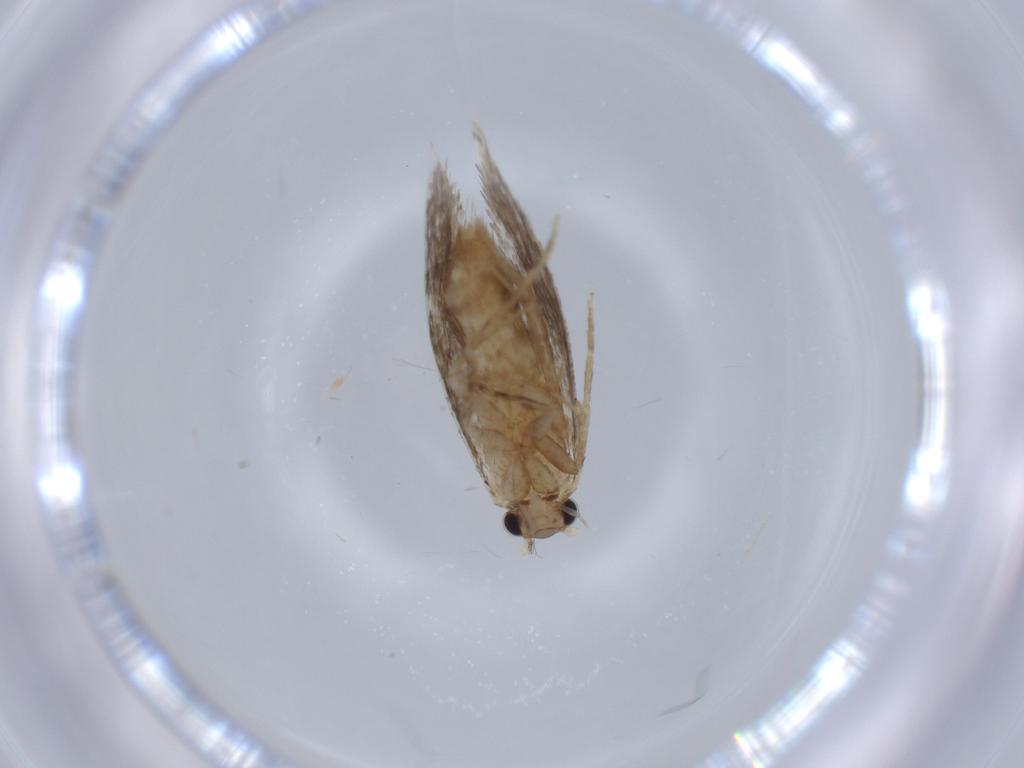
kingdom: Animalia
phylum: Arthropoda
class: Insecta
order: Lepidoptera
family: Tineidae
